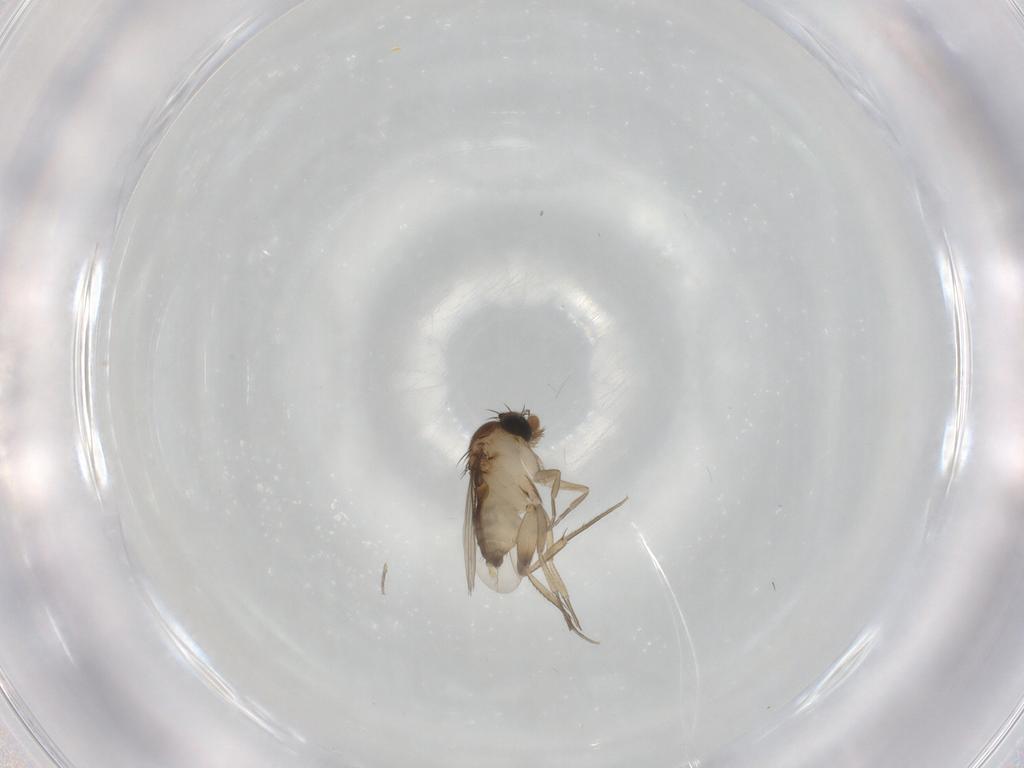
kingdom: Animalia
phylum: Arthropoda
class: Insecta
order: Diptera
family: Phoridae
